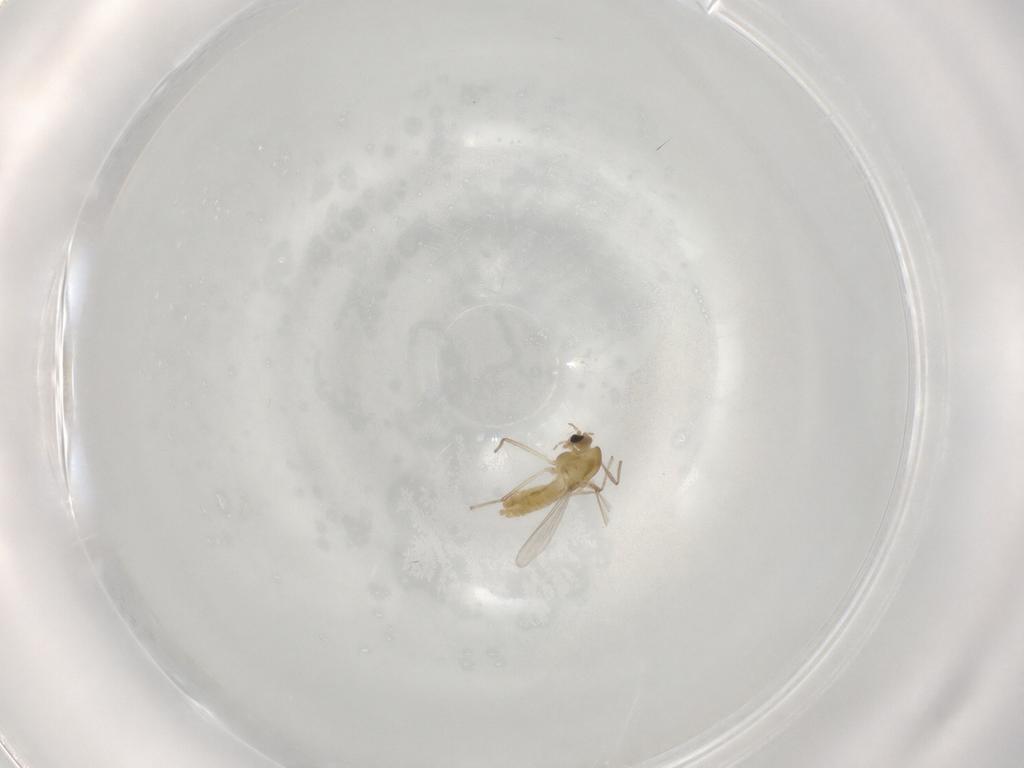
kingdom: Animalia
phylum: Arthropoda
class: Insecta
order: Diptera
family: Chironomidae
